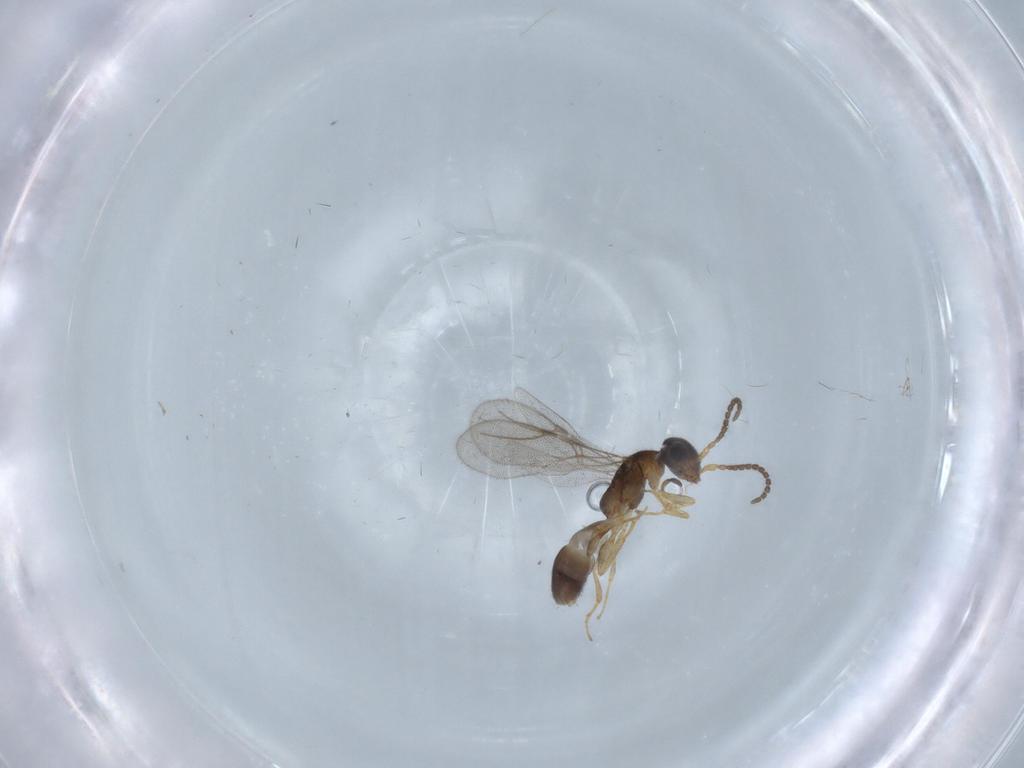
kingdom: Animalia
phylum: Arthropoda
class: Insecta
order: Hymenoptera
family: Bethylidae
